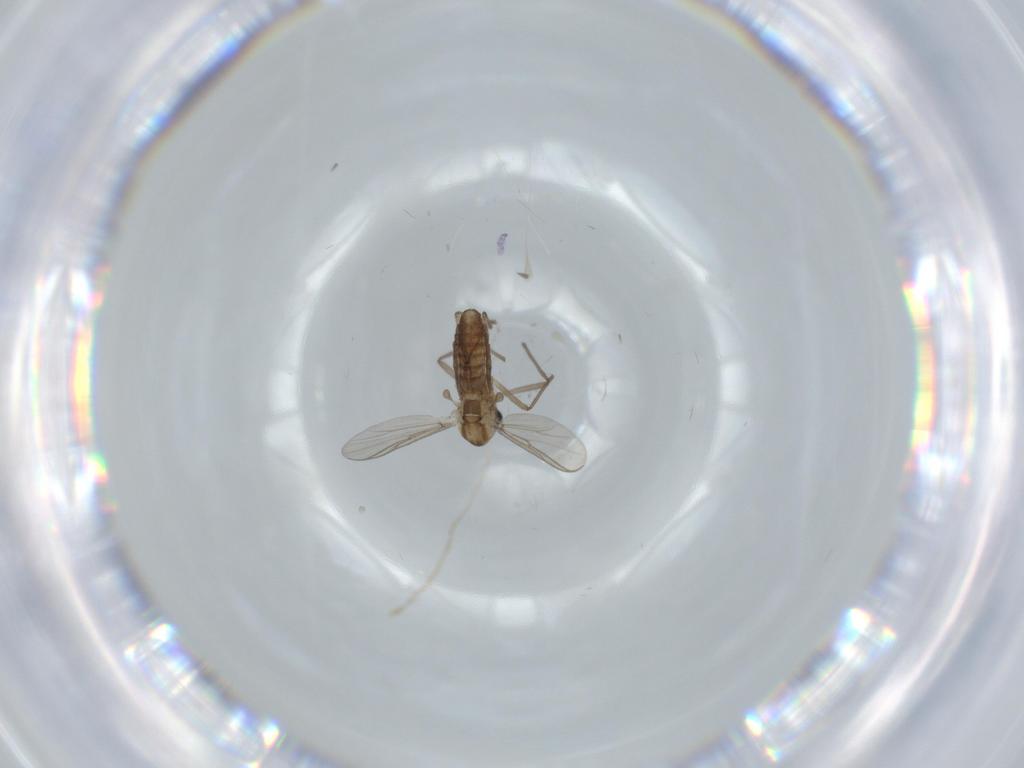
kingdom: Animalia
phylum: Arthropoda
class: Insecta
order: Diptera
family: Chironomidae
